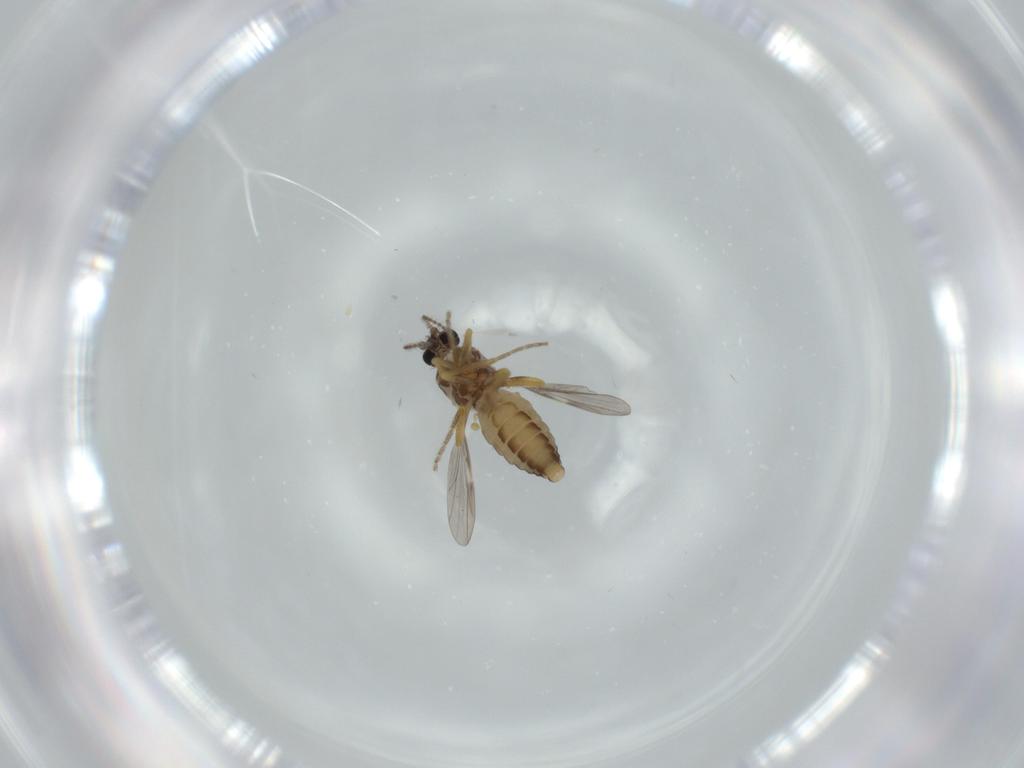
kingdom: Animalia
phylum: Arthropoda
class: Insecta
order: Diptera
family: Ceratopogonidae
